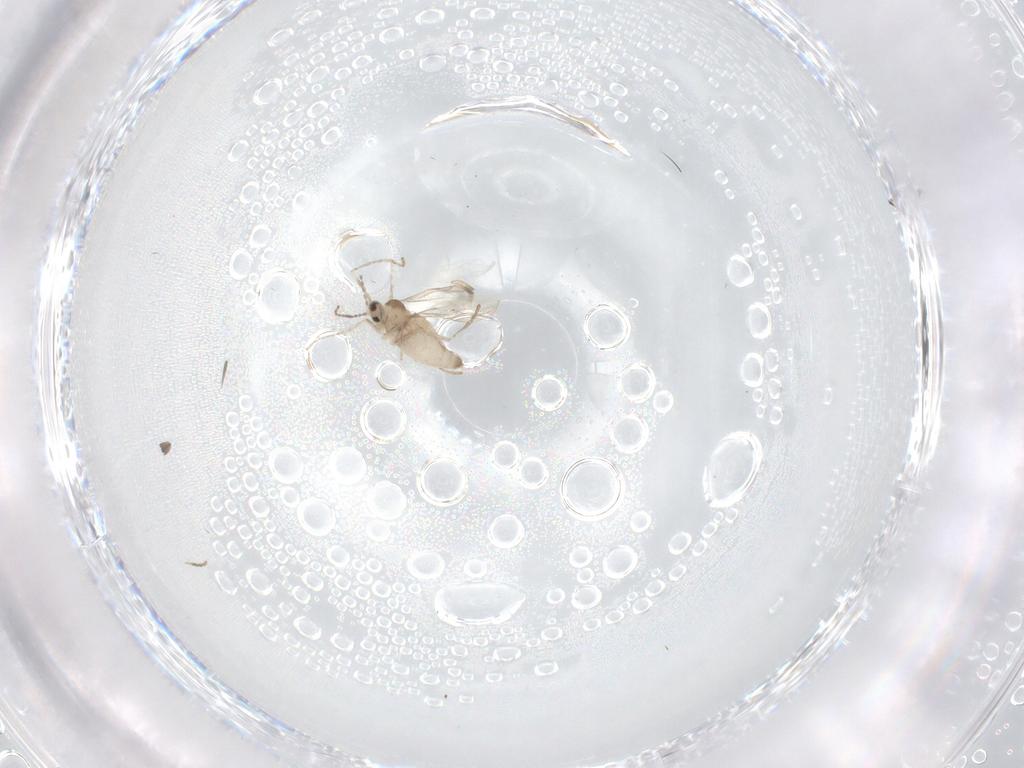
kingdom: Animalia
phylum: Arthropoda
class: Insecta
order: Diptera
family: Cecidomyiidae
